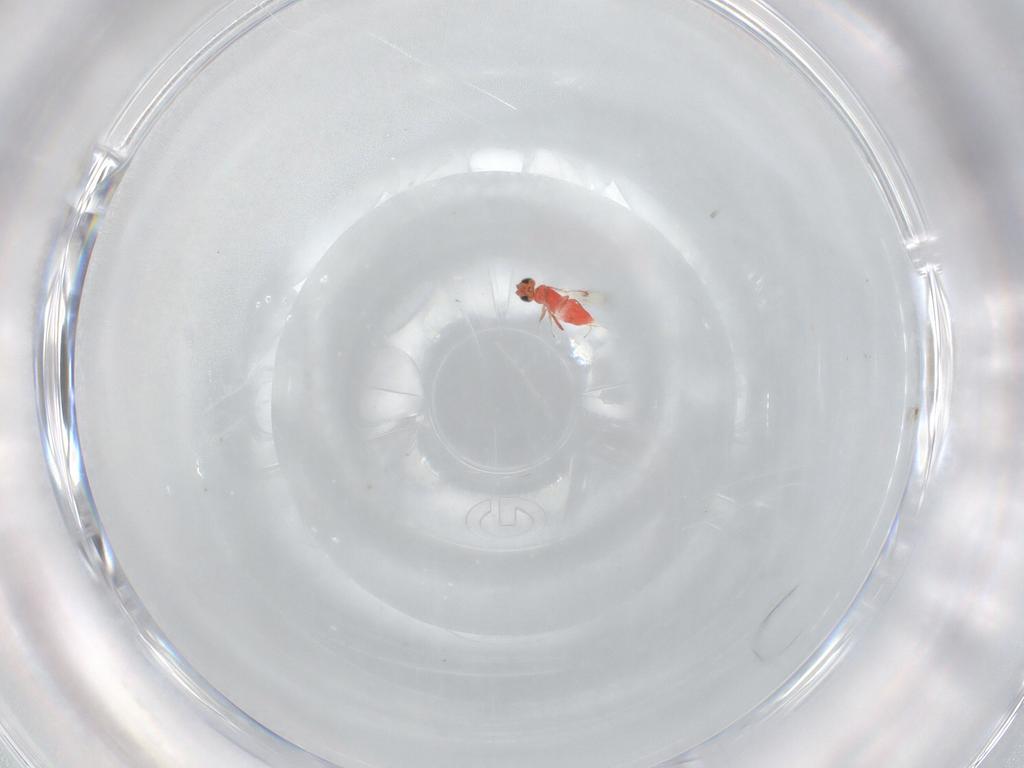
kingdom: Animalia
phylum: Arthropoda
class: Insecta
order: Hymenoptera
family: Trichogrammatidae
